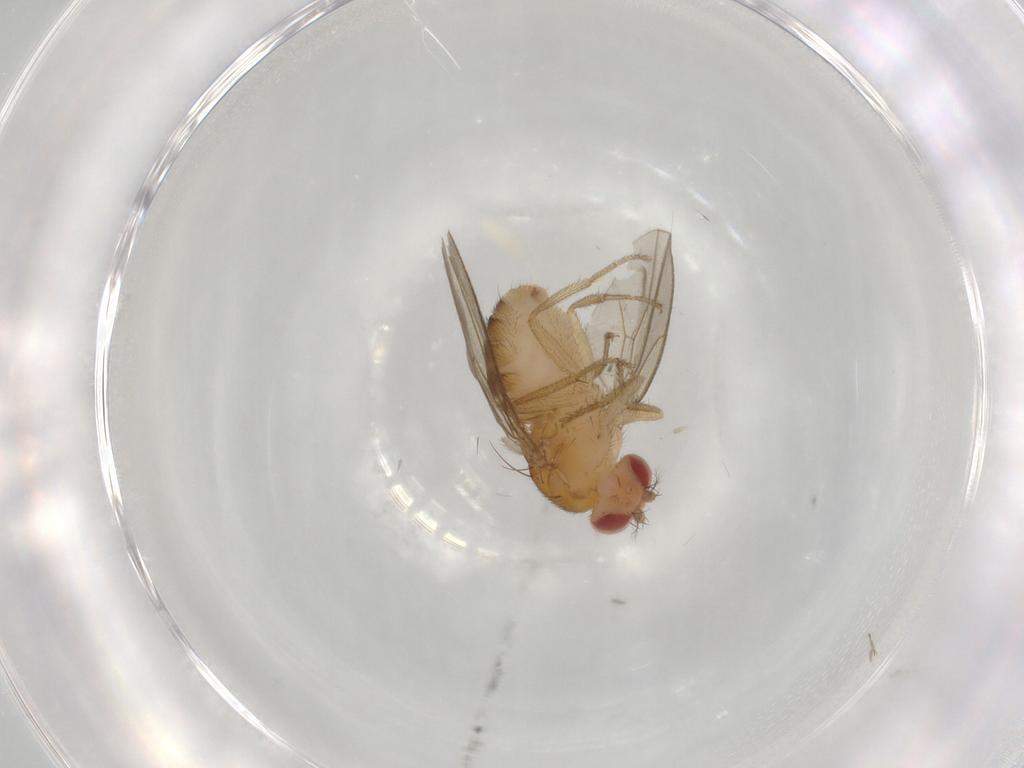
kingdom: Animalia
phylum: Arthropoda
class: Insecta
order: Diptera
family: Drosophilidae
